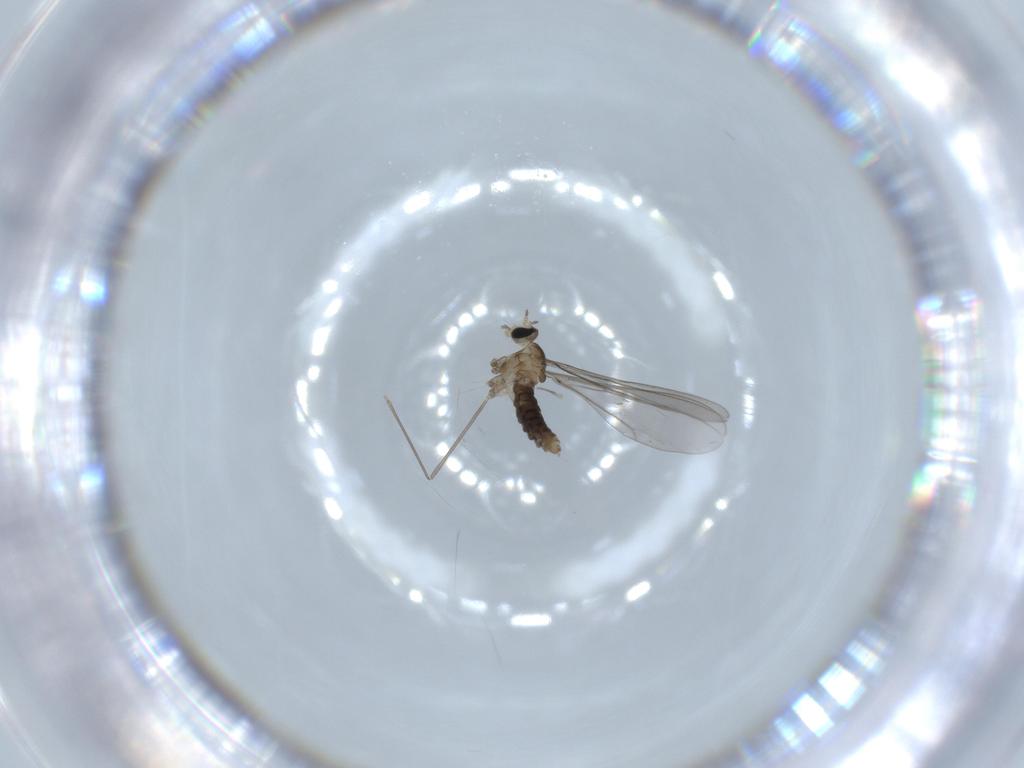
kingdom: Animalia
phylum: Arthropoda
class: Insecta
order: Diptera
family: Cecidomyiidae
